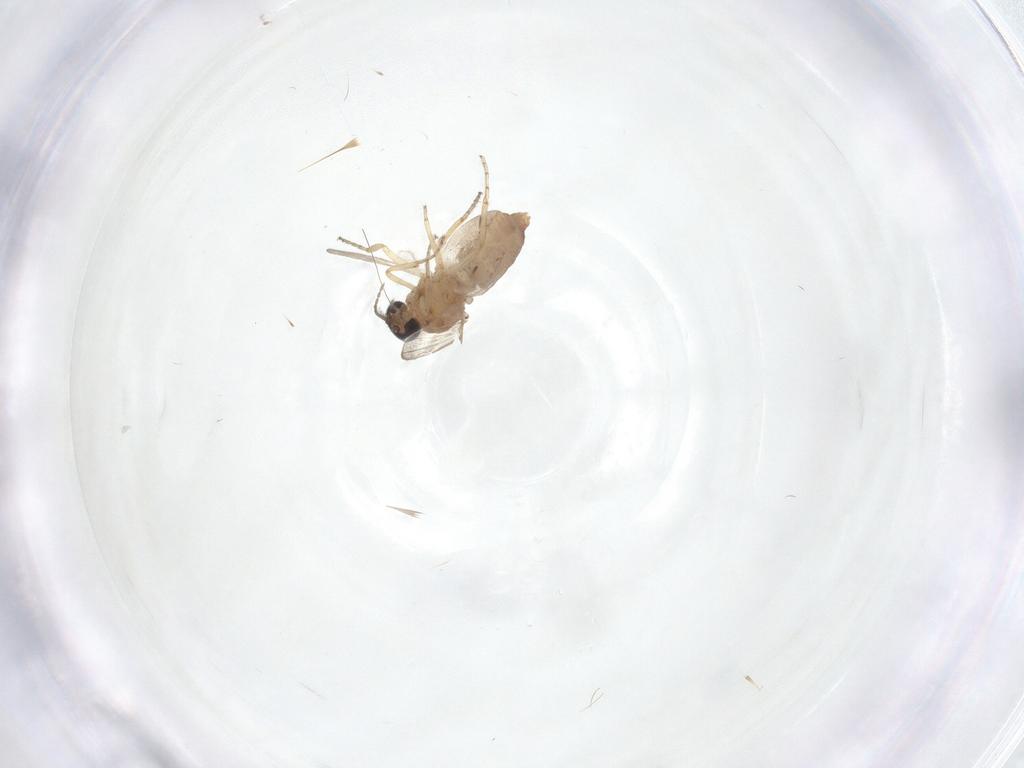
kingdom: Animalia
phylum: Arthropoda
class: Insecta
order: Diptera
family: Ceratopogonidae
